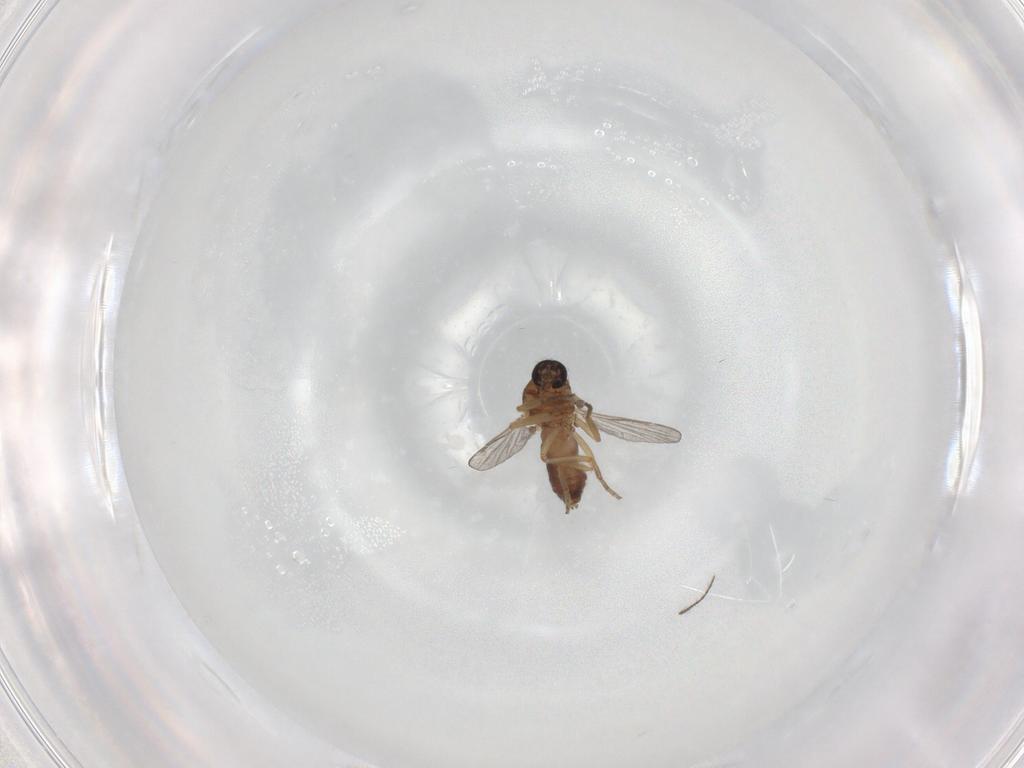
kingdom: Animalia
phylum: Arthropoda
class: Insecta
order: Diptera
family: Ceratopogonidae
